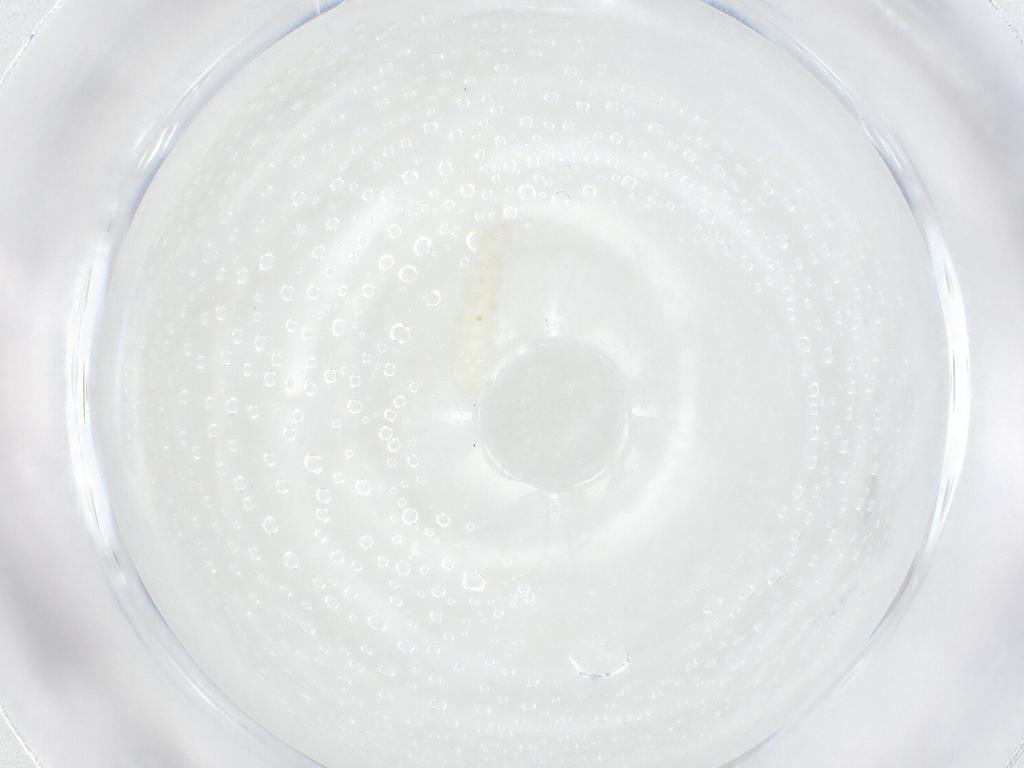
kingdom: Animalia
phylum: Arthropoda
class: Collembola
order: Poduromorpha
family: Onychiuridae
